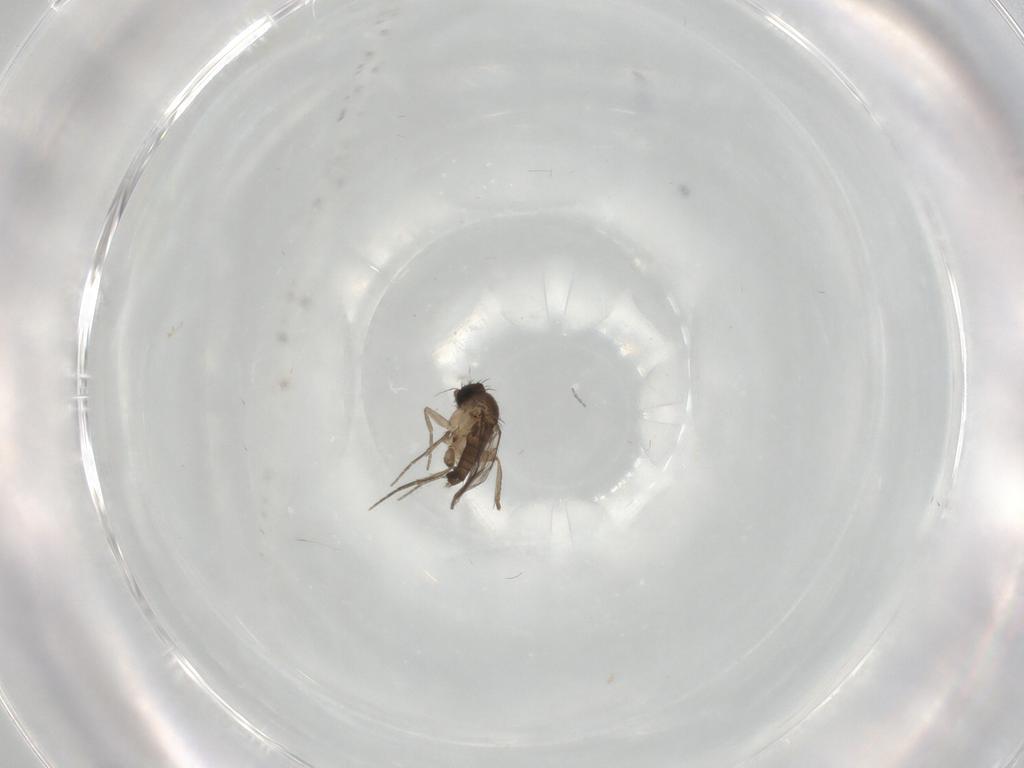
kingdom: Animalia
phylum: Arthropoda
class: Insecta
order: Diptera
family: Phoridae
